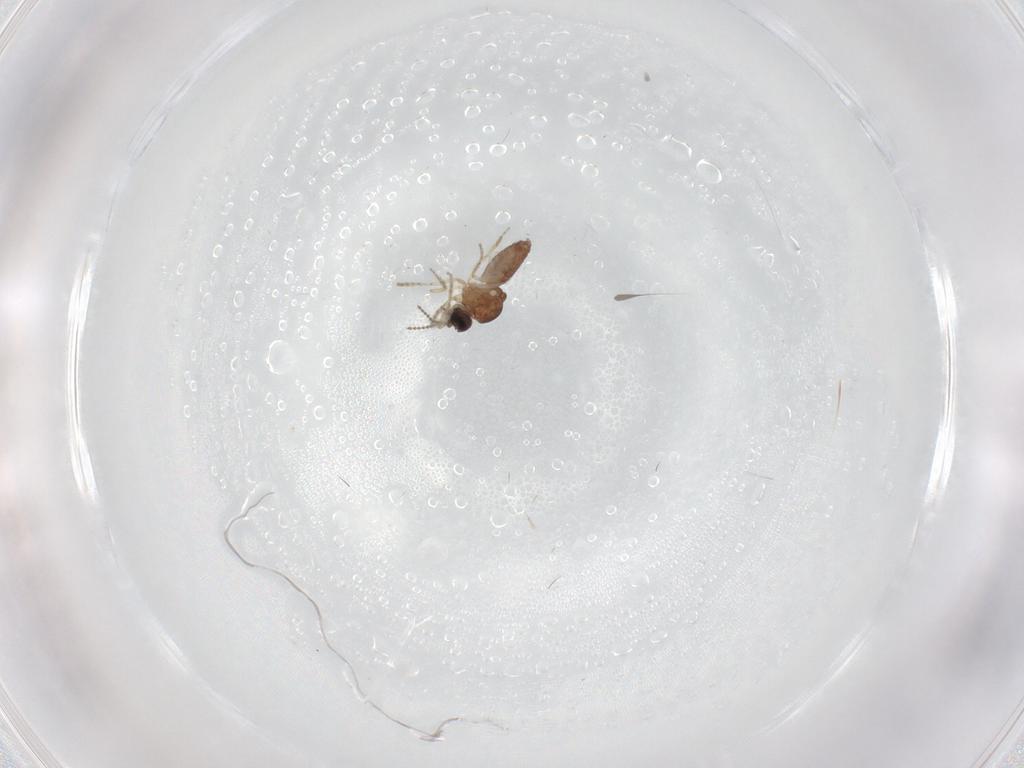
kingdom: Animalia
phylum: Arthropoda
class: Insecta
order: Diptera
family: Ceratopogonidae
